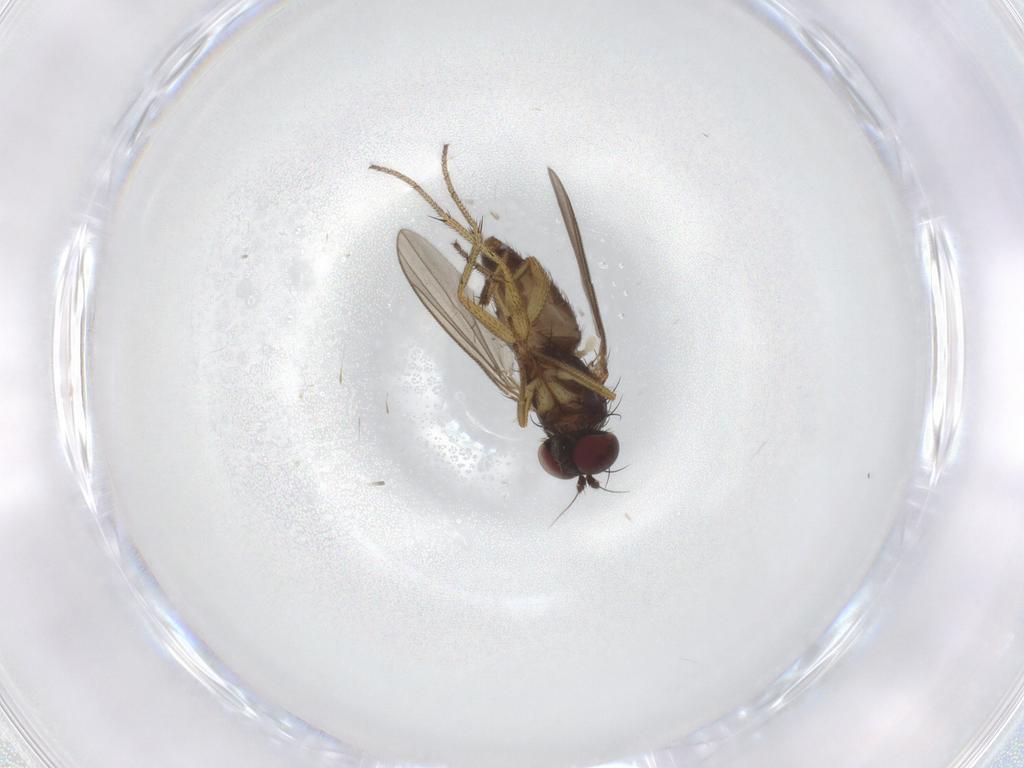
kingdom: Animalia
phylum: Arthropoda
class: Insecta
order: Diptera
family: Dolichopodidae
